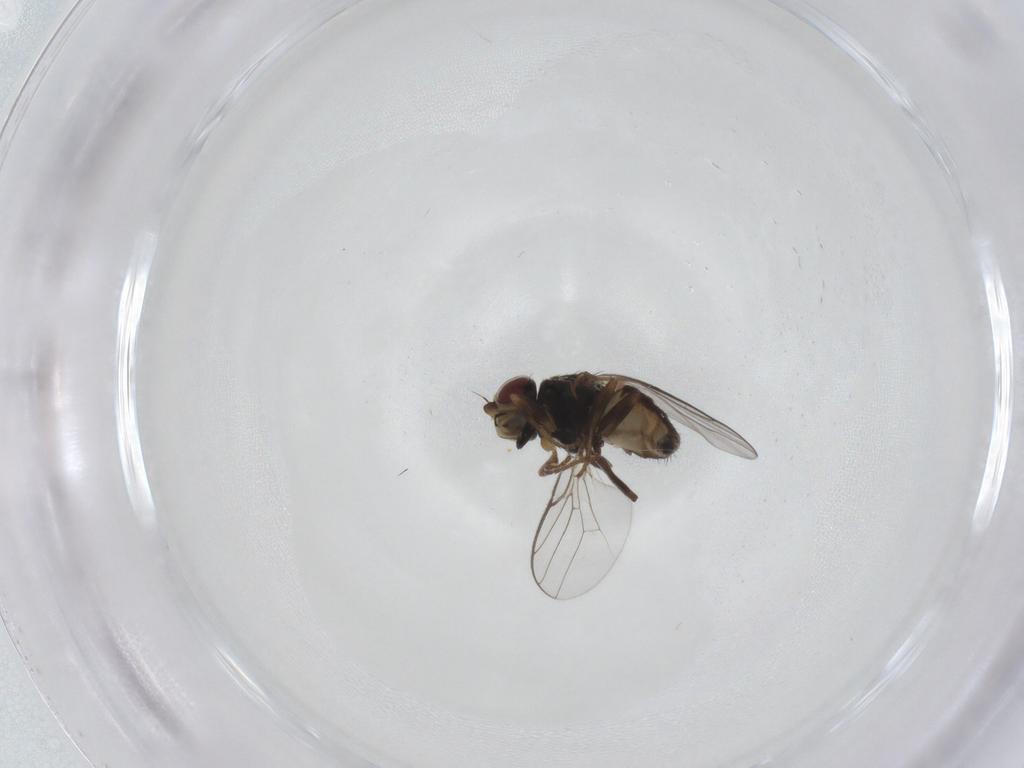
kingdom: Animalia
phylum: Arthropoda
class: Insecta
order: Diptera
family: Chloropidae
